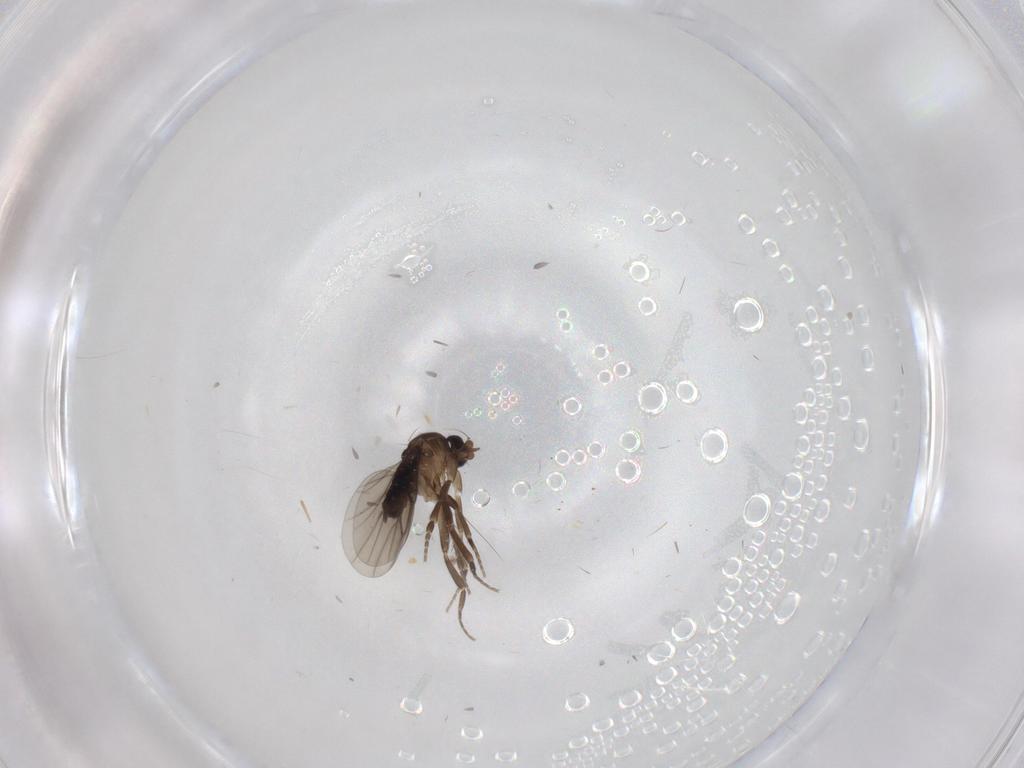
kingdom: Animalia
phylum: Arthropoda
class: Insecta
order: Diptera
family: Phoridae
